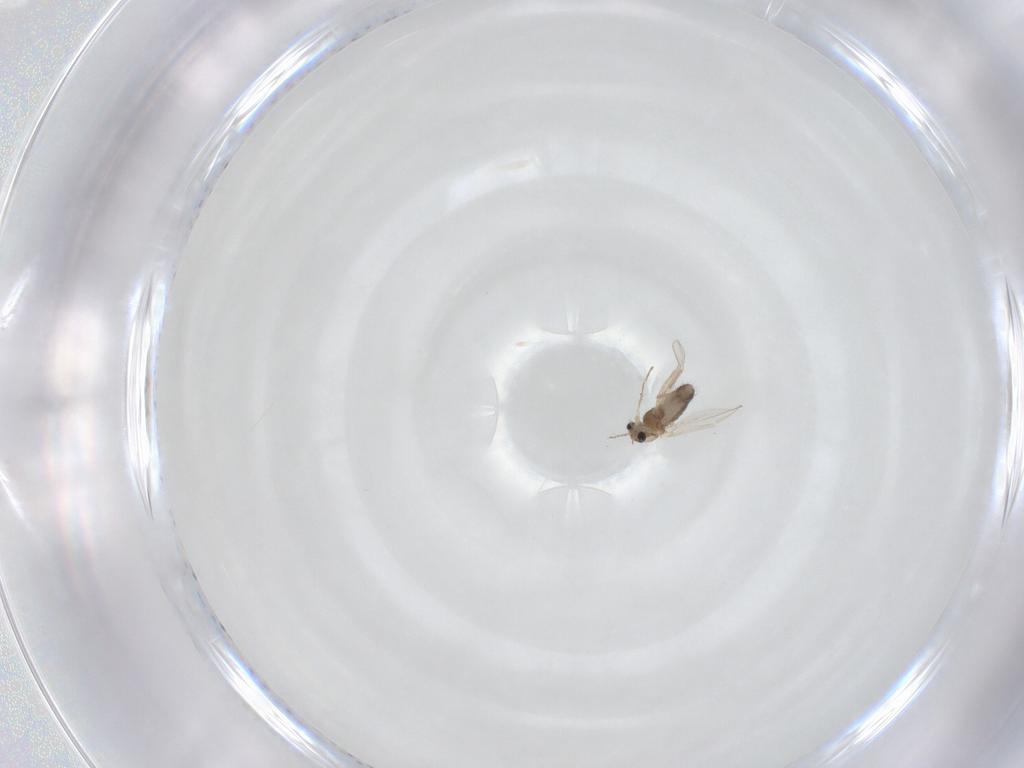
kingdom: Animalia
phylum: Arthropoda
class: Insecta
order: Diptera
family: Chironomidae
